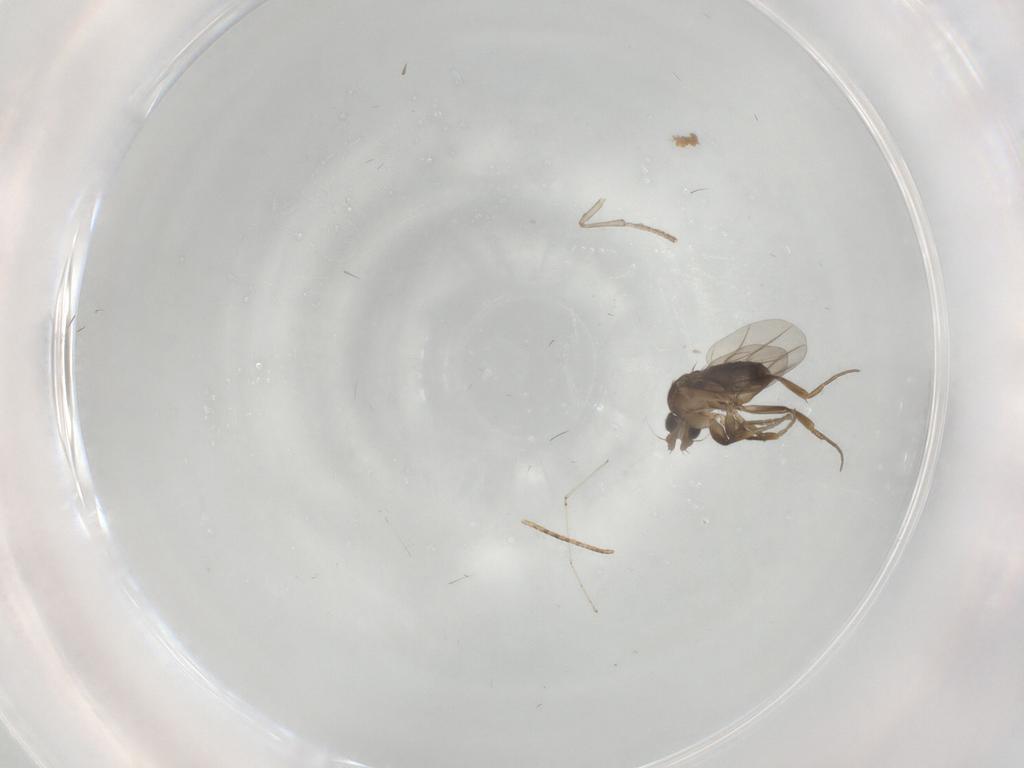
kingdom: Animalia
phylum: Arthropoda
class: Insecta
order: Diptera
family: Phoridae
